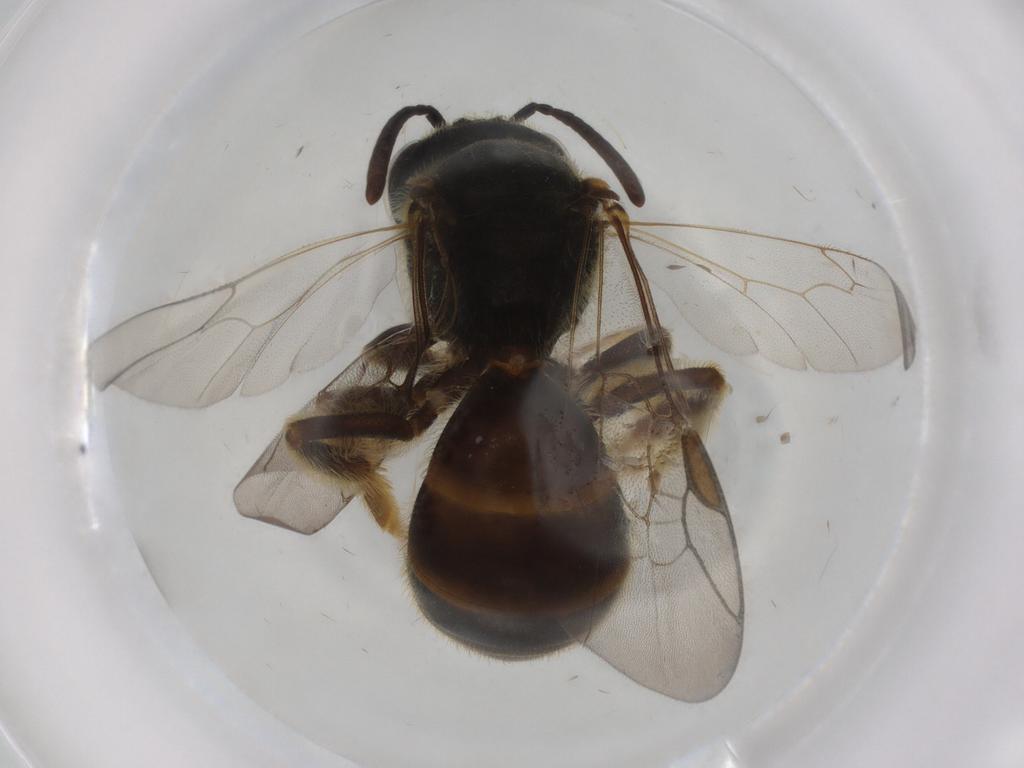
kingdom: Animalia
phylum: Arthropoda
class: Insecta
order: Hymenoptera
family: Halictidae
